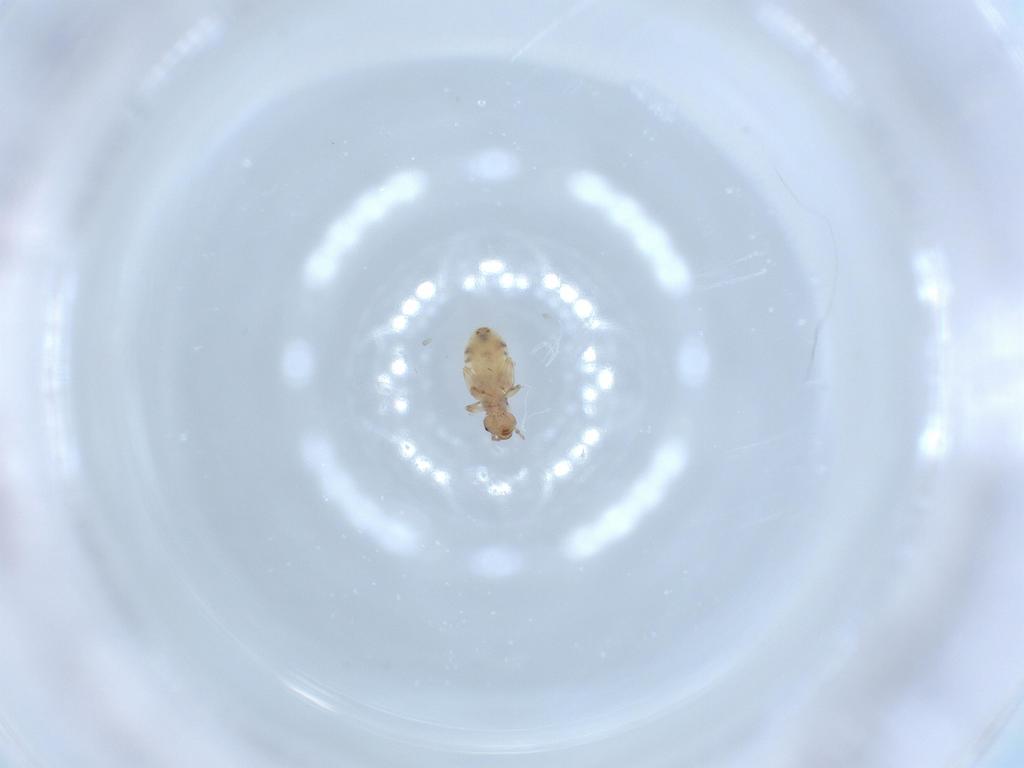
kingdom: Animalia
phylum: Arthropoda
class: Insecta
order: Psocodea
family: Liposcelididae
